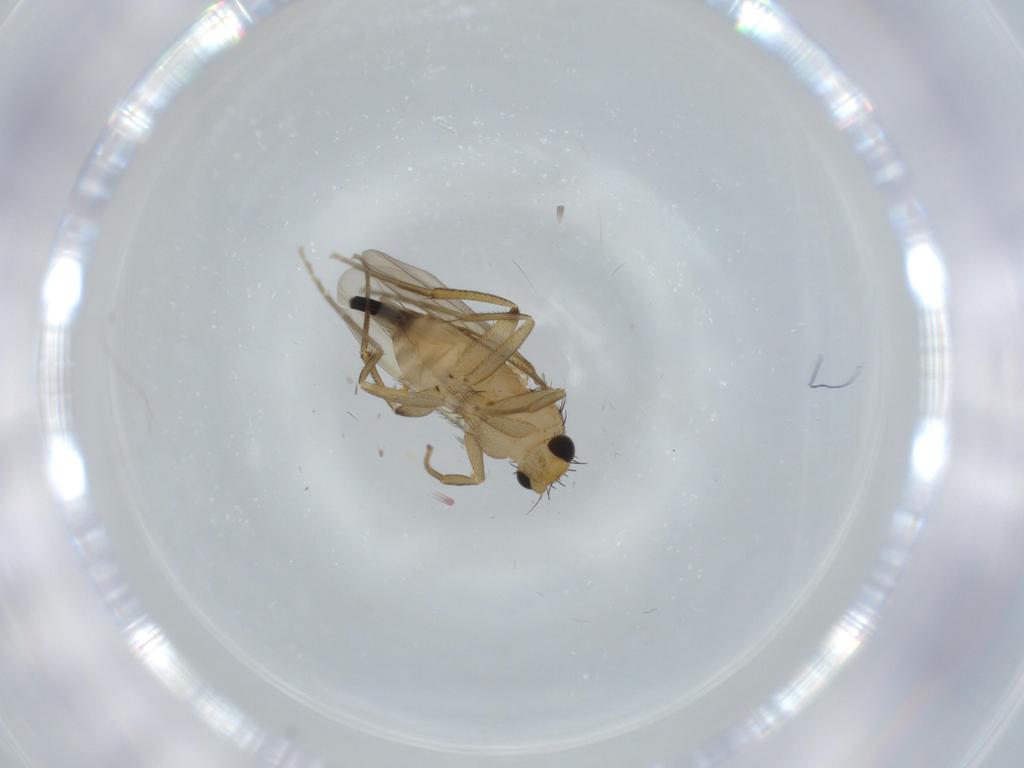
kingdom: Animalia
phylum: Arthropoda
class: Insecta
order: Diptera
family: Phoridae
